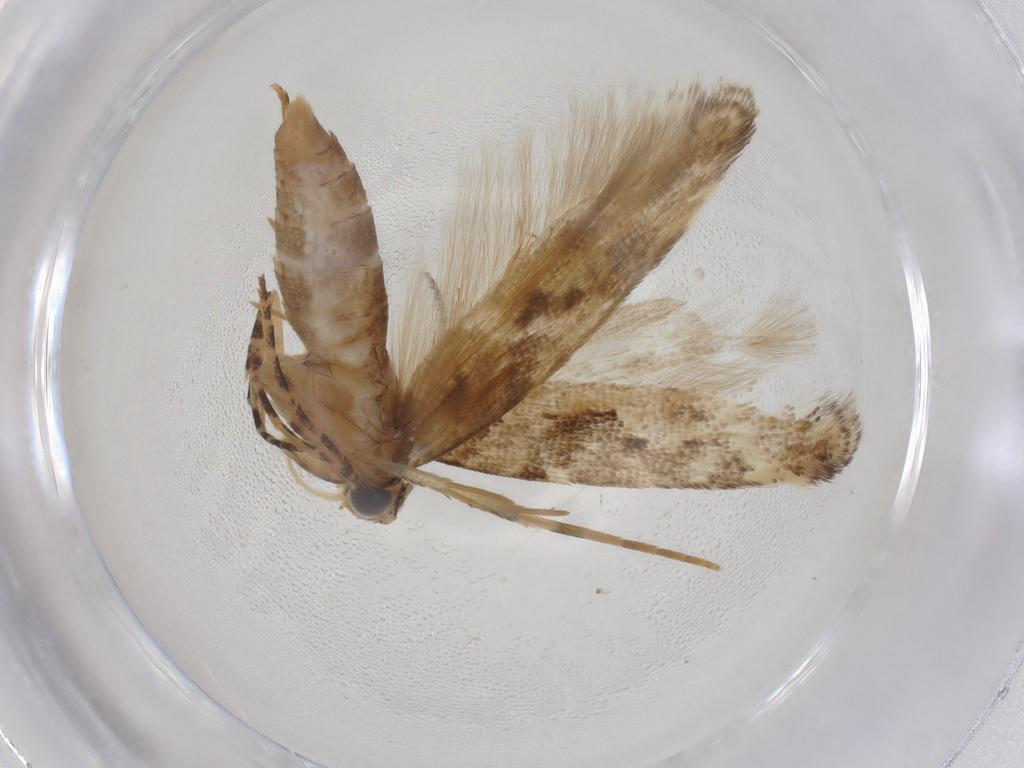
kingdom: Animalia
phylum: Arthropoda
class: Insecta
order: Lepidoptera
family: Gelechiidae
